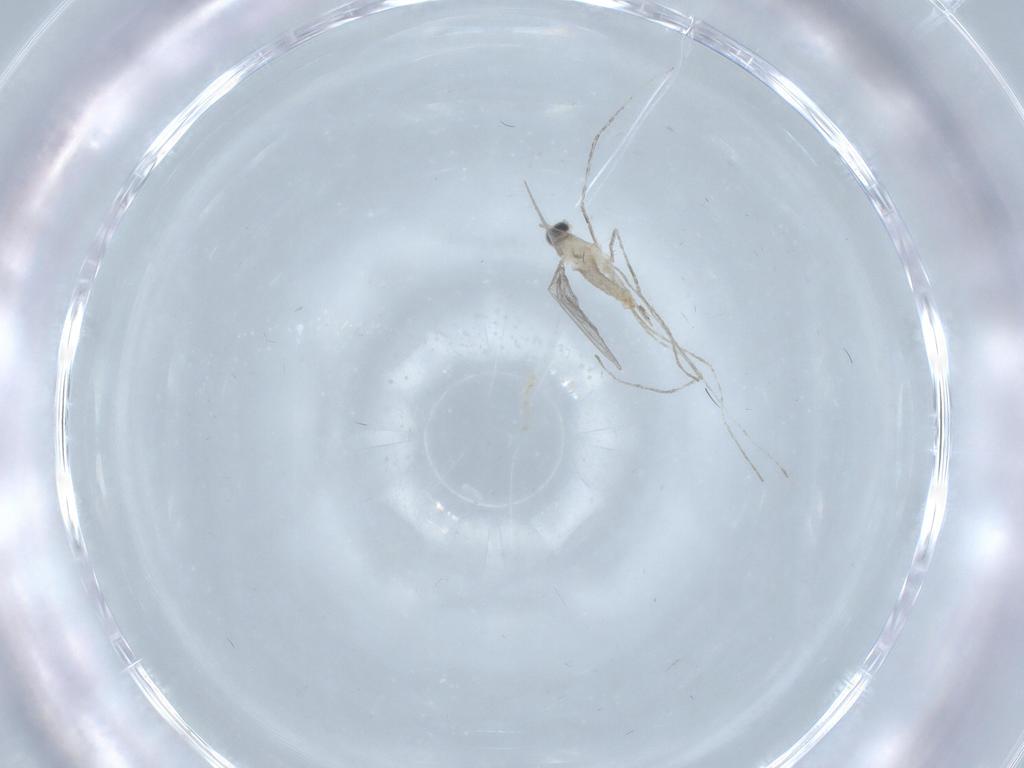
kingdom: Animalia
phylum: Arthropoda
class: Insecta
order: Diptera
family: Cecidomyiidae
